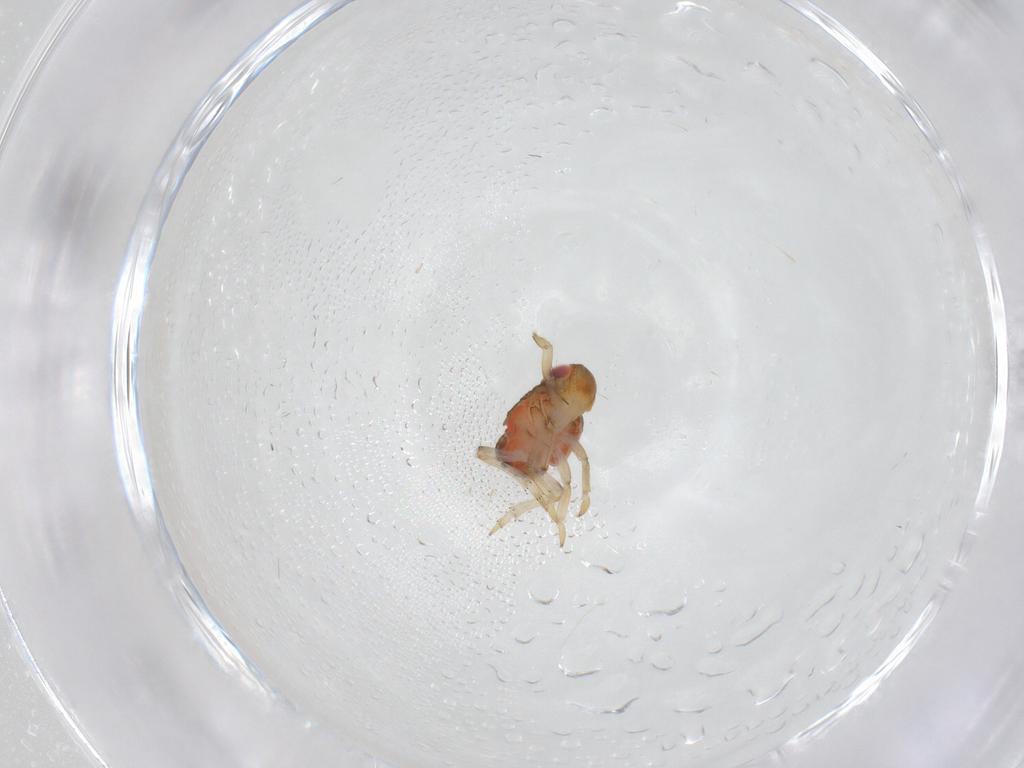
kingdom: Animalia
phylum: Arthropoda
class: Insecta
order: Hemiptera
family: Issidae
